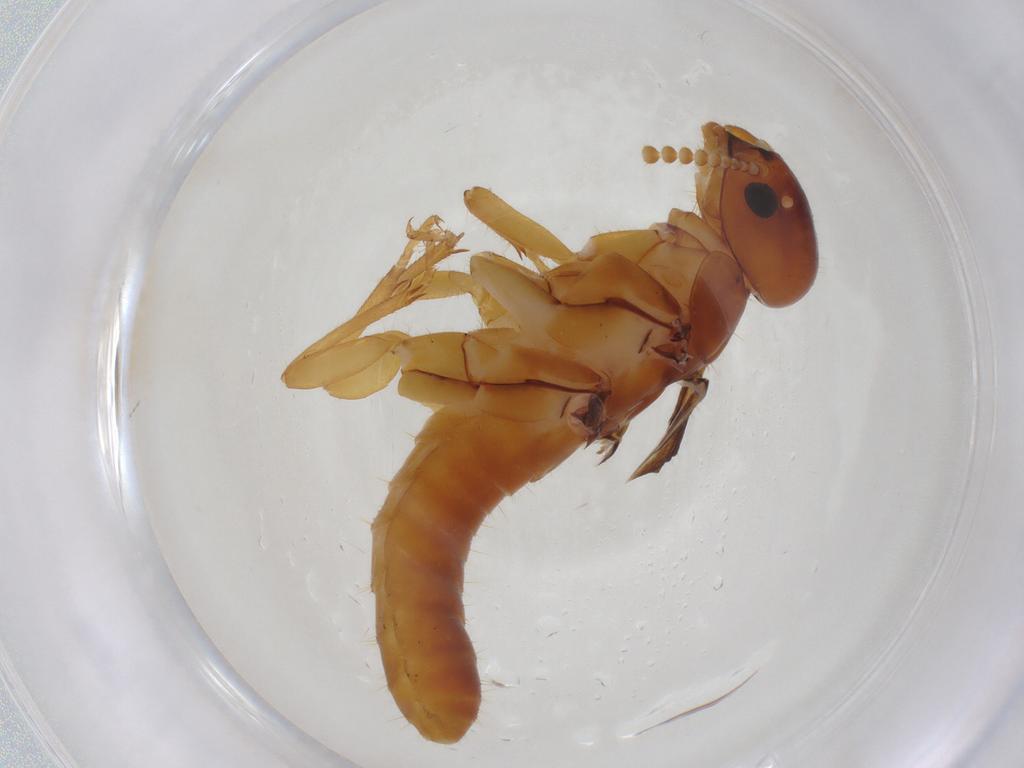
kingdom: Animalia
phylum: Arthropoda
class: Insecta
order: Blattodea
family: Kalotermitidae
